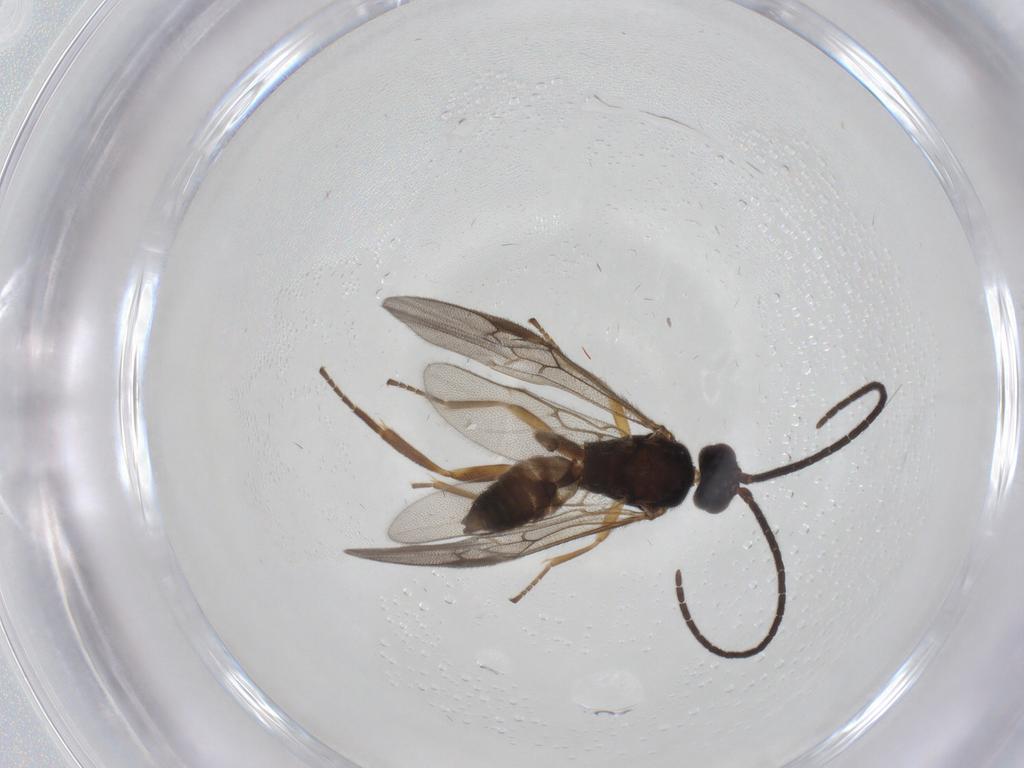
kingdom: Animalia
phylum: Arthropoda
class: Insecta
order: Hymenoptera
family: Braconidae
